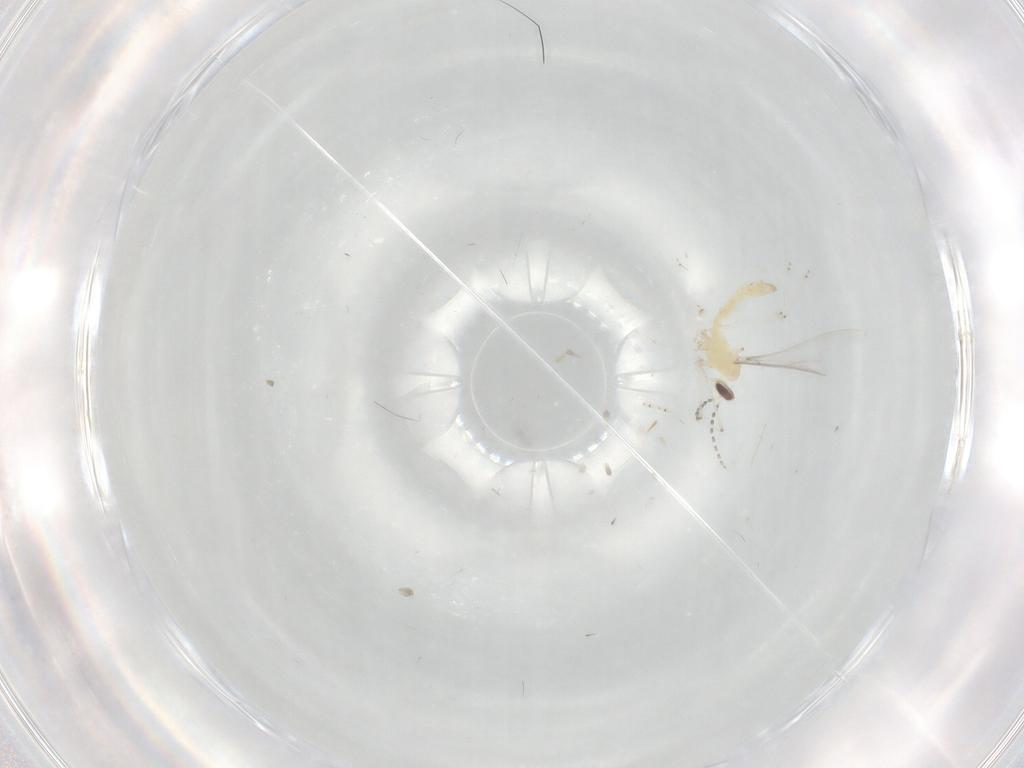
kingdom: Animalia
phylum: Arthropoda
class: Insecta
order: Diptera
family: Cecidomyiidae
